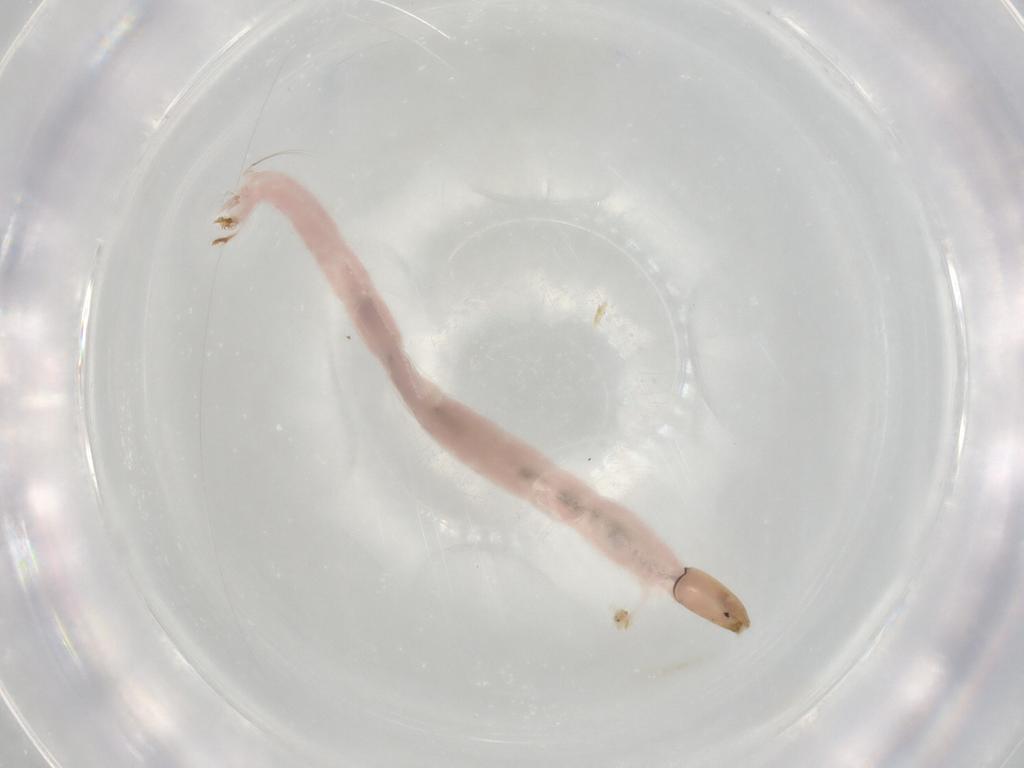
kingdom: Animalia
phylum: Arthropoda
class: Insecta
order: Diptera
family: Chironomidae
